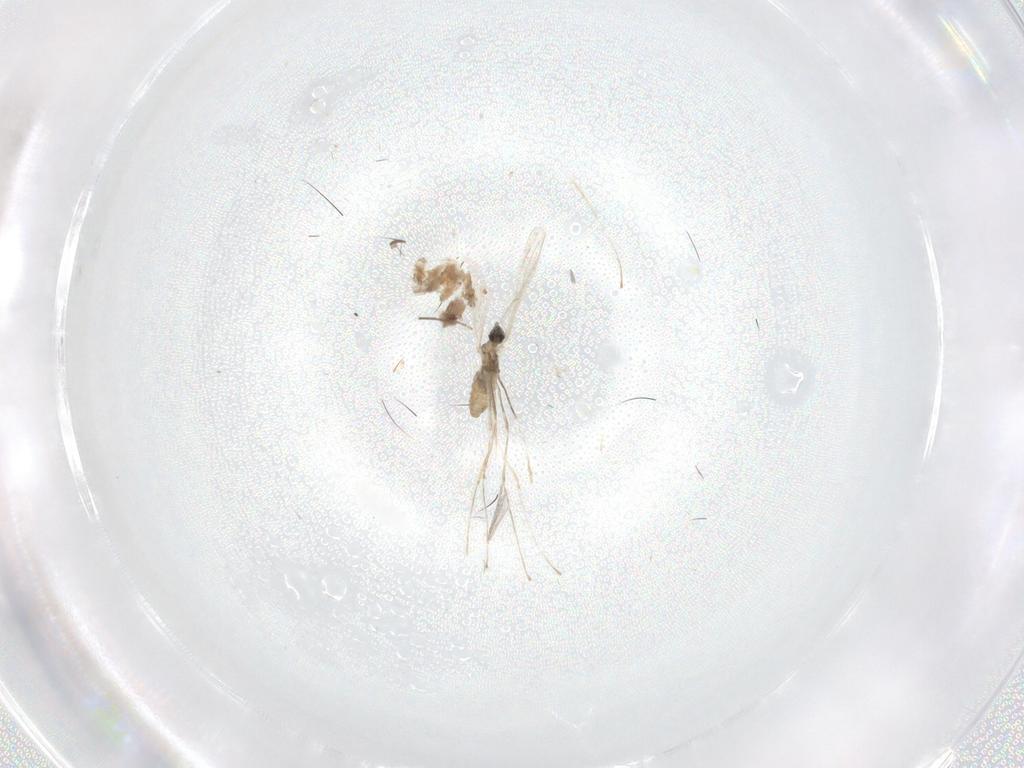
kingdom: Animalia
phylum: Arthropoda
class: Insecta
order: Diptera
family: Cecidomyiidae
